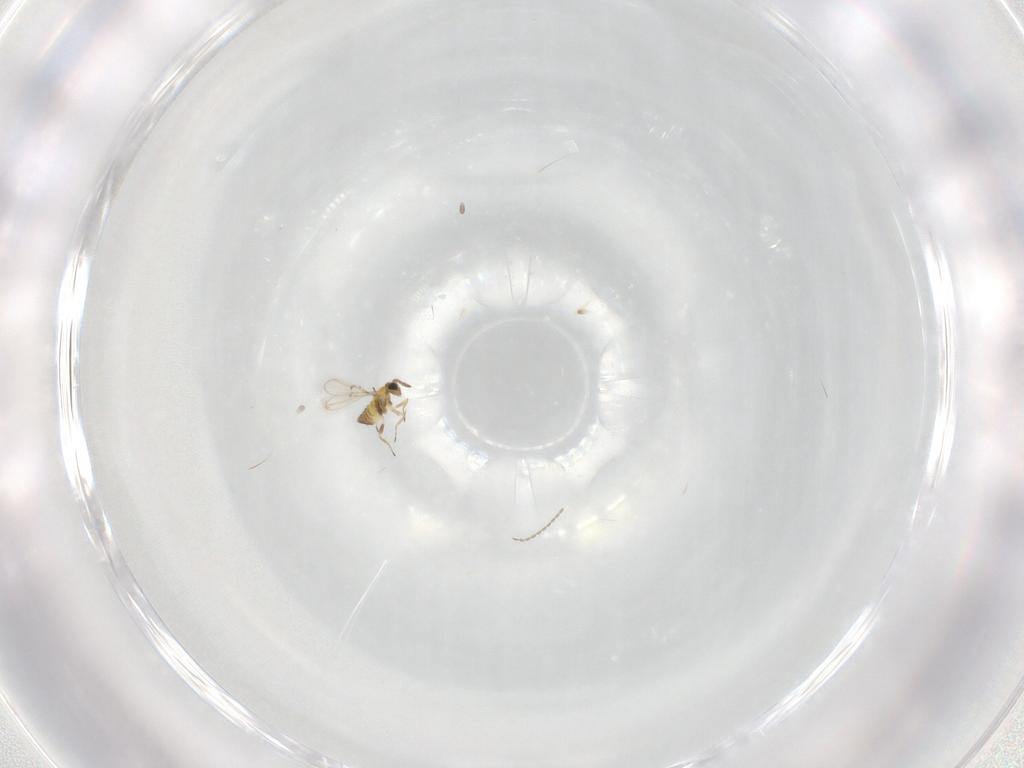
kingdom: Animalia
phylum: Arthropoda
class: Insecta
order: Hymenoptera
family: Trichogrammatidae
